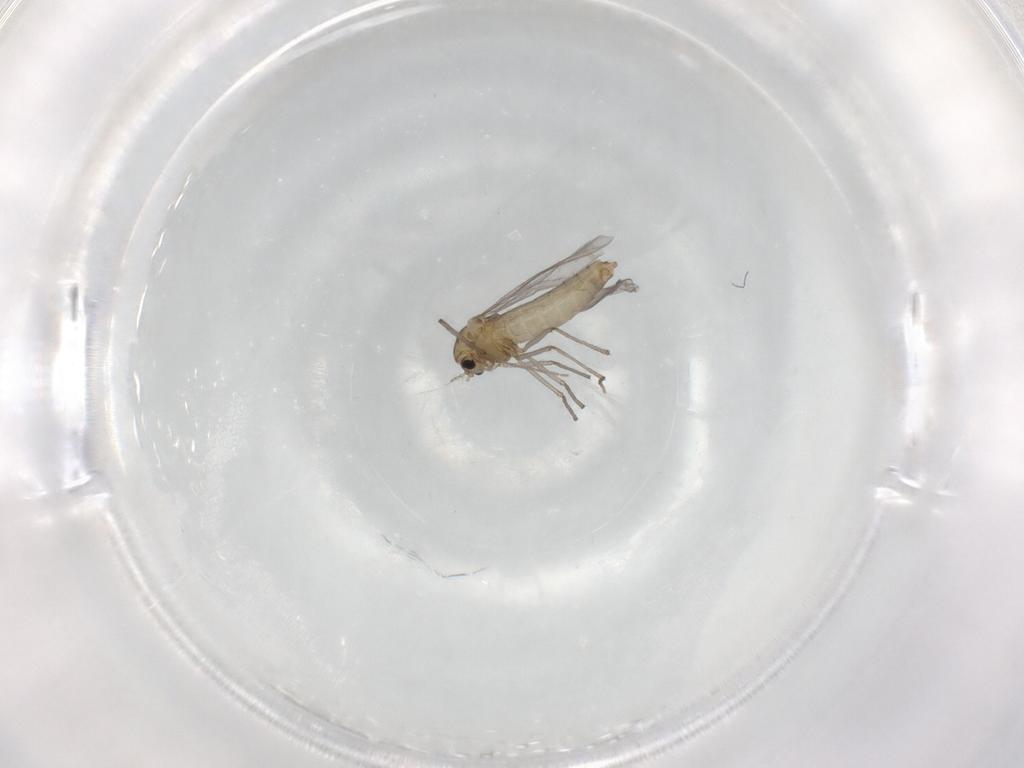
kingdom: Animalia
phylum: Arthropoda
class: Insecta
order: Diptera
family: Chironomidae
